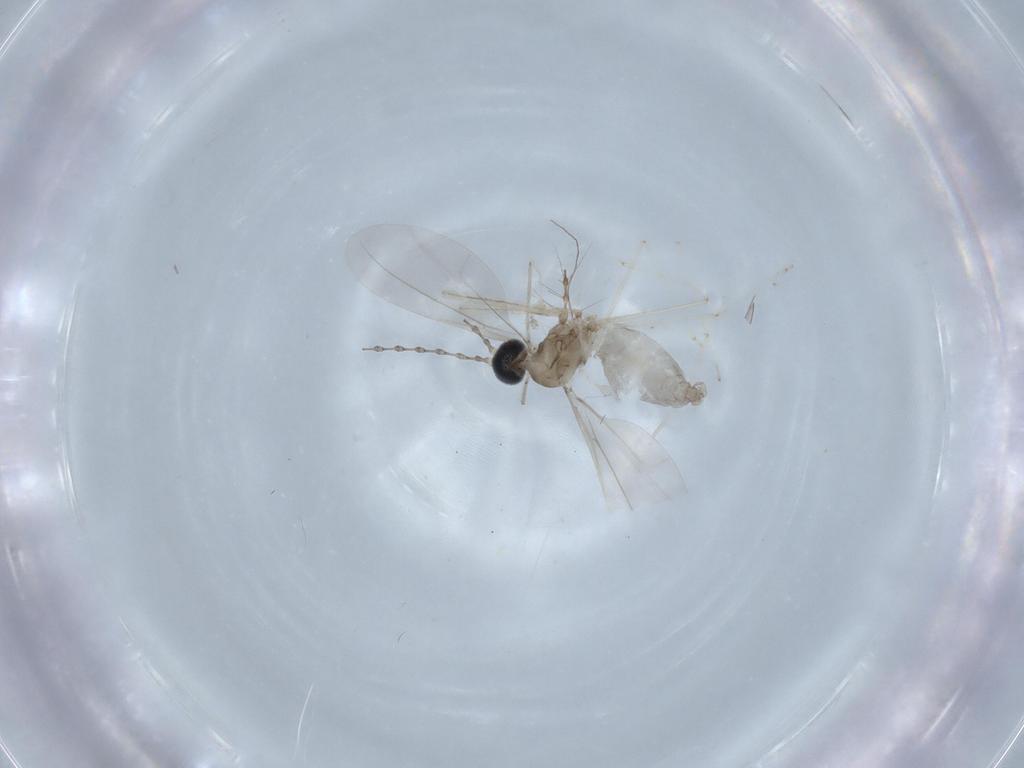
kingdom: Animalia
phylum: Arthropoda
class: Insecta
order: Diptera
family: Cecidomyiidae
